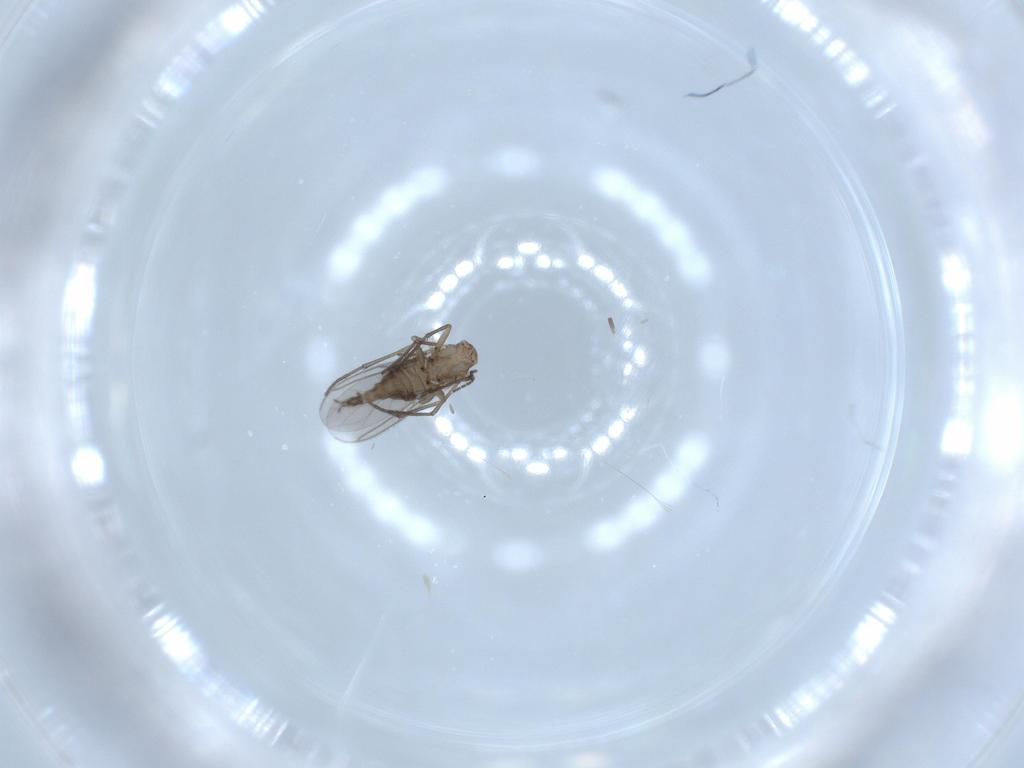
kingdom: Animalia
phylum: Arthropoda
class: Insecta
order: Diptera
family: Sciaridae
